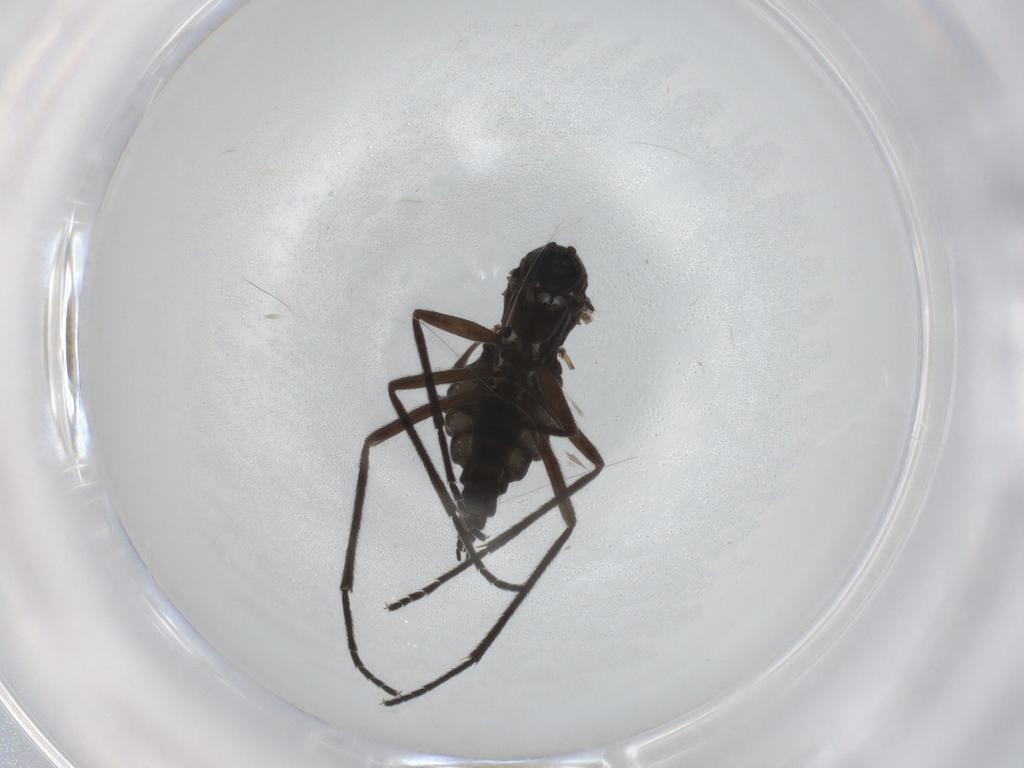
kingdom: Animalia
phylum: Arthropoda
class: Insecta
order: Diptera
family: Sciaridae
